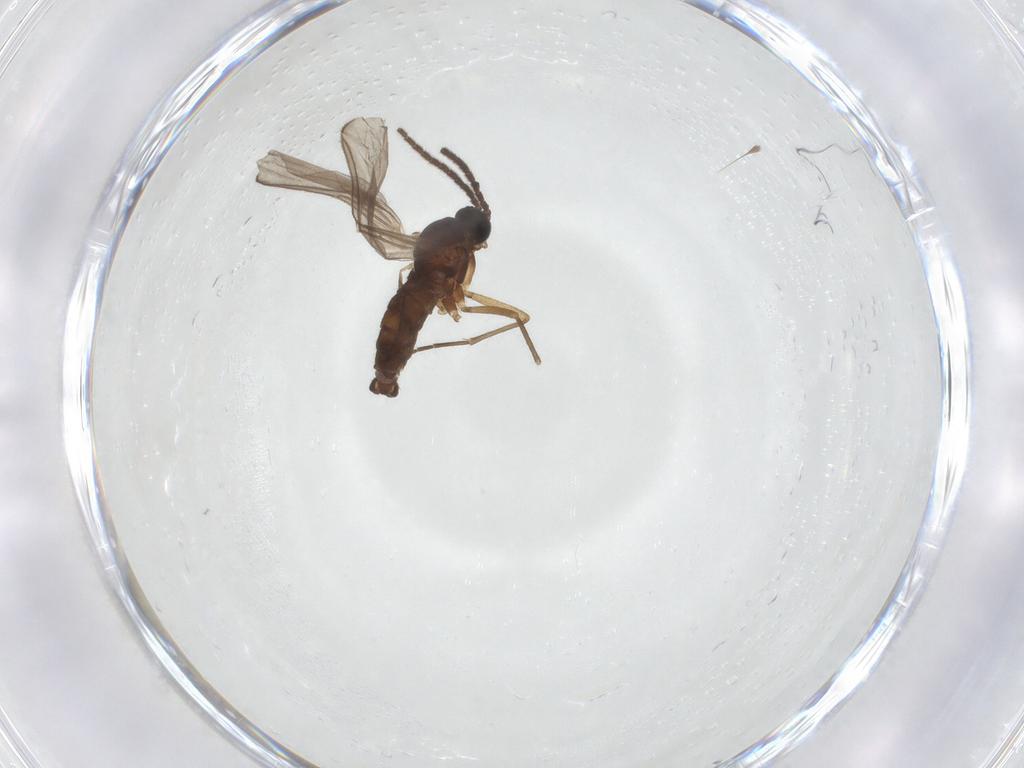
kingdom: Animalia
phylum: Arthropoda
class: Insecta
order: Diptera
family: Sciaridae
